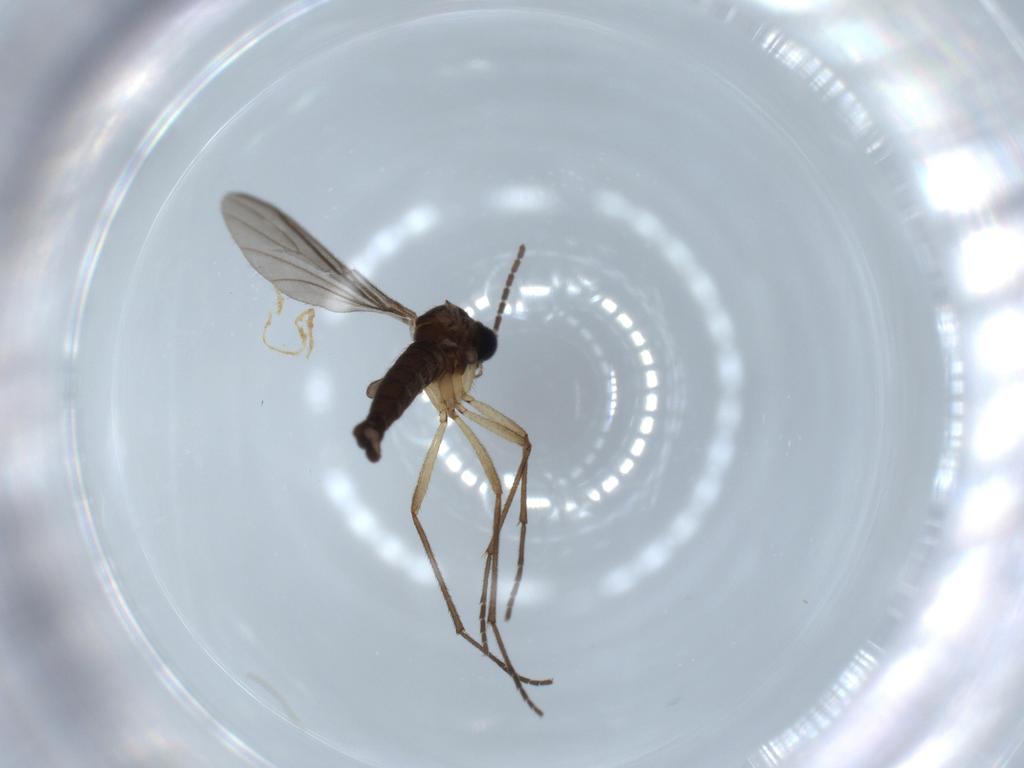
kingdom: Animalia
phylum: Arthropoda
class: Insecta
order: Diptera
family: Sciaridae
